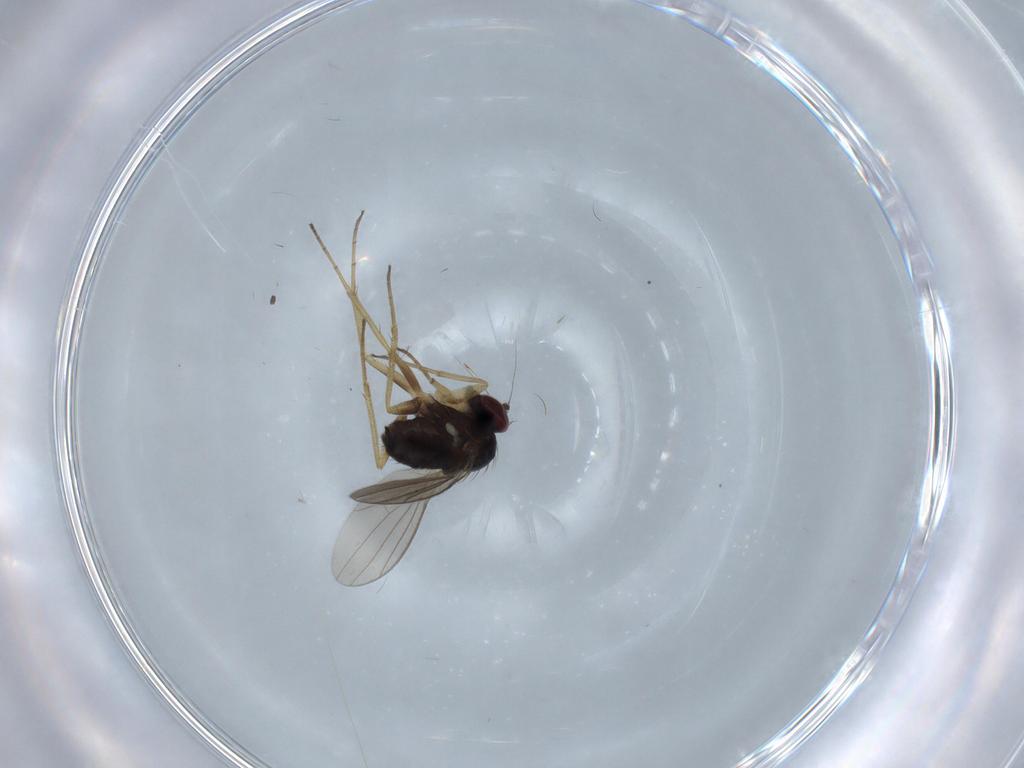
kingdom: Animalia
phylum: Arthropoda
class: Insecta
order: Diptera
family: Dolichopodidae
